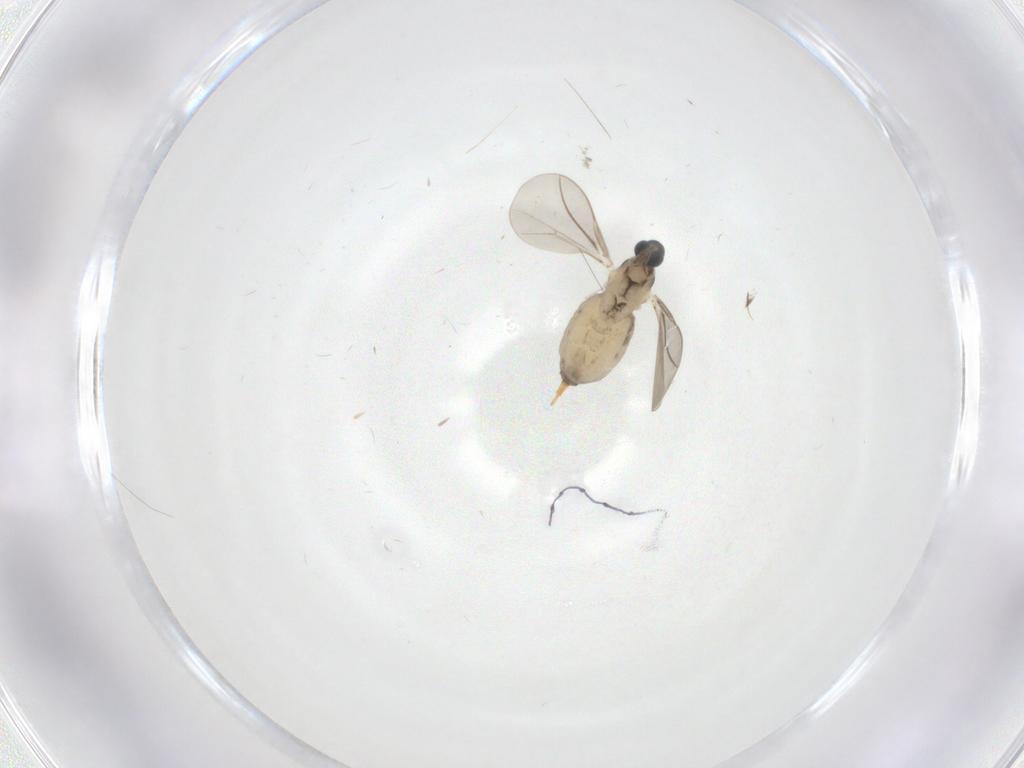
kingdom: Animalia
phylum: Arthropoda
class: Insecta
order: Diptera
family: Cecidomyiidae
